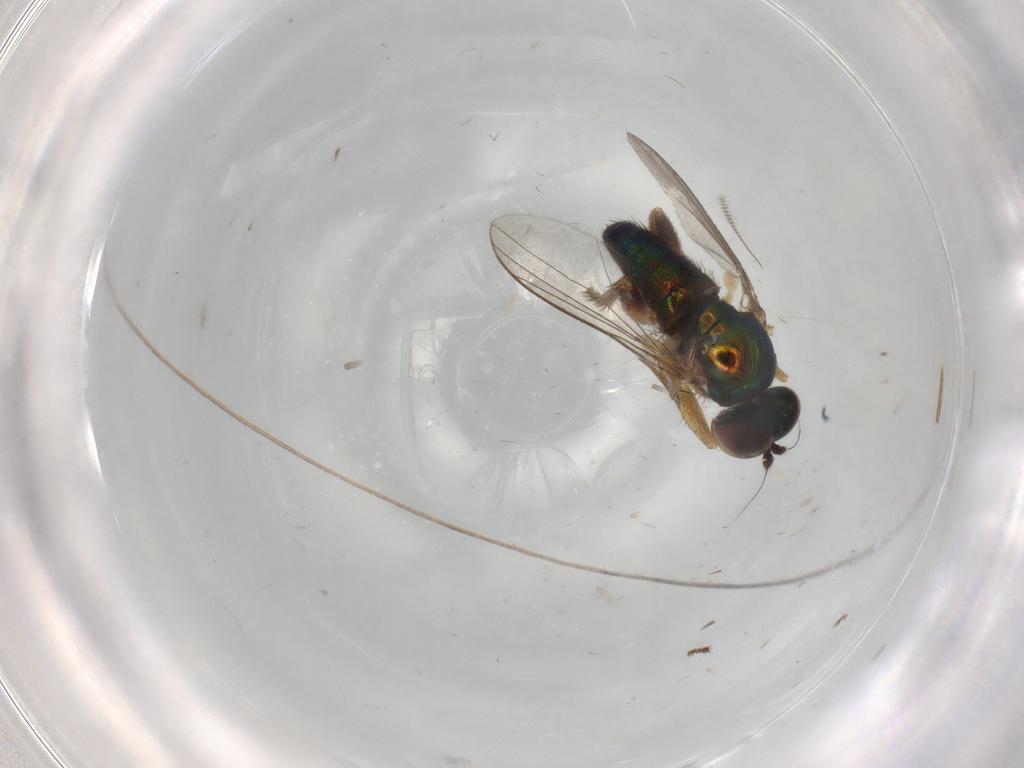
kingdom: Animalia
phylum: Arthropoda
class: Insecta
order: Diptera
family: Chironomidae
